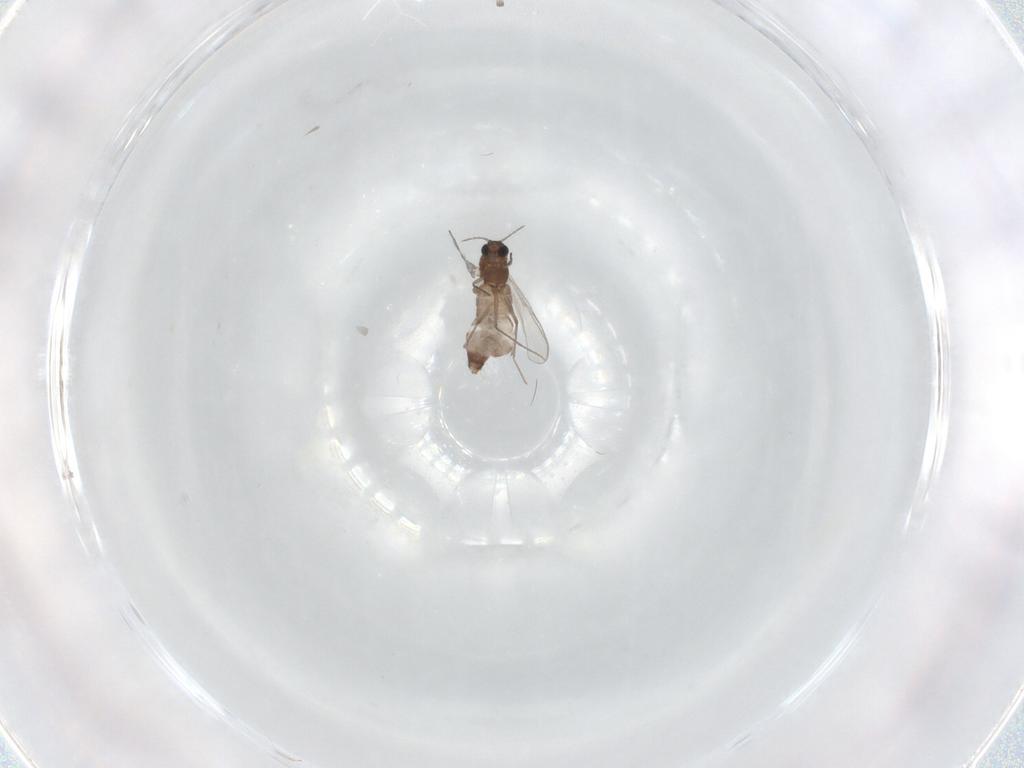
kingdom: Animalia
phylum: Arthropoda
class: Insecta
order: Diptera
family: Chironomidae
